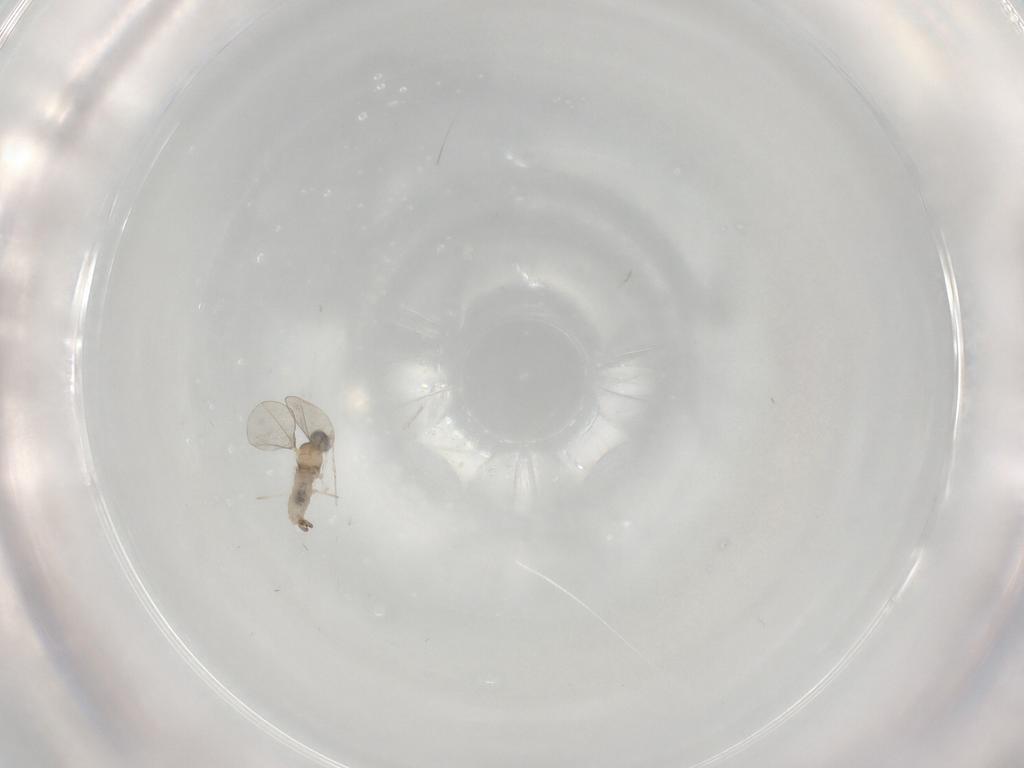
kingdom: Animalia
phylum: Arthropoda
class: Insecta
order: Diptera
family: Cecidomyiidae
